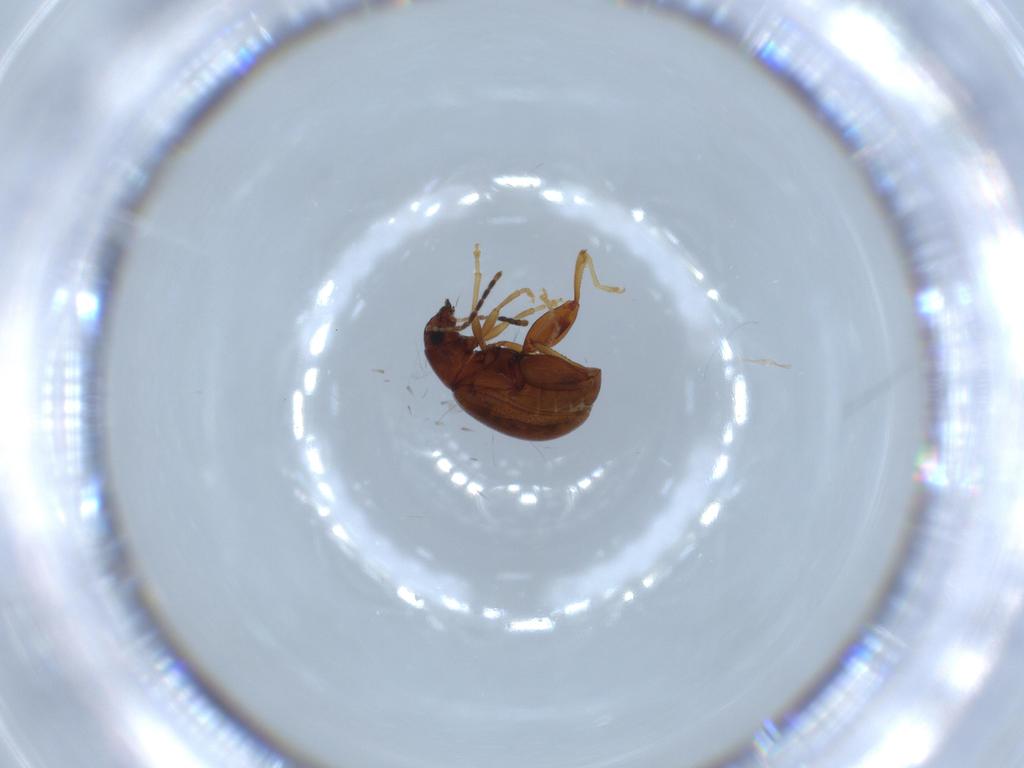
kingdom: Animalia
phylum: Arthropoda
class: Insecta
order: Coleoptera
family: Chrysomelidae
